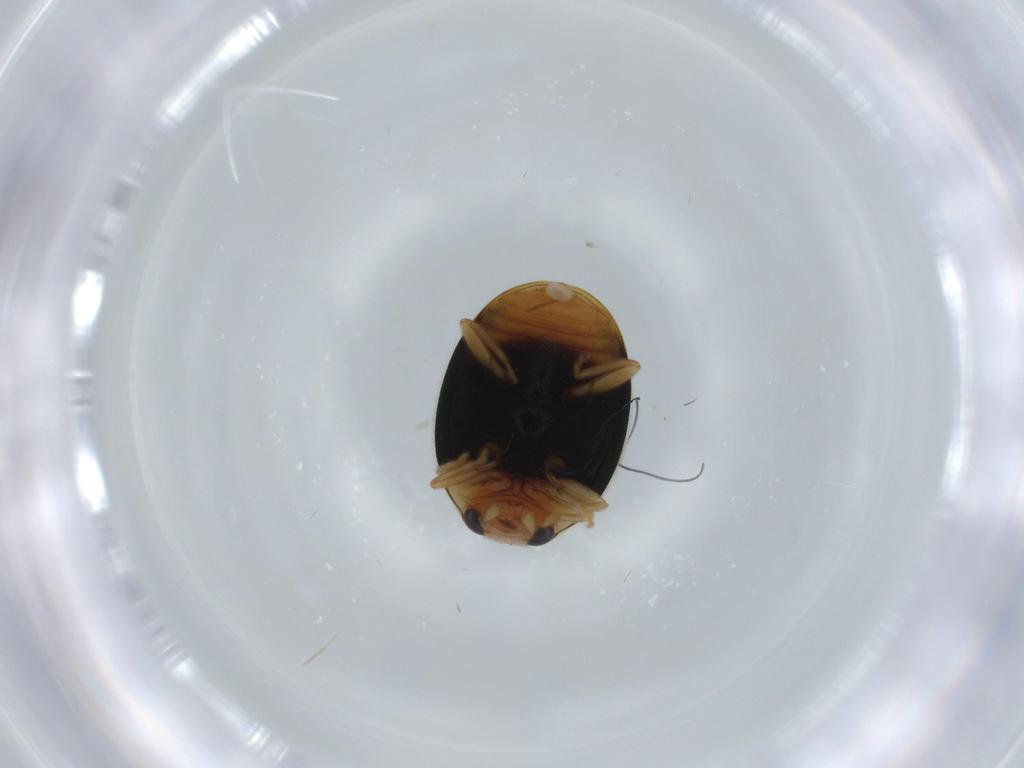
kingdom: Animalia
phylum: Arthropoda
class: Insecta
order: Coleoptera
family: Coccinellidae
